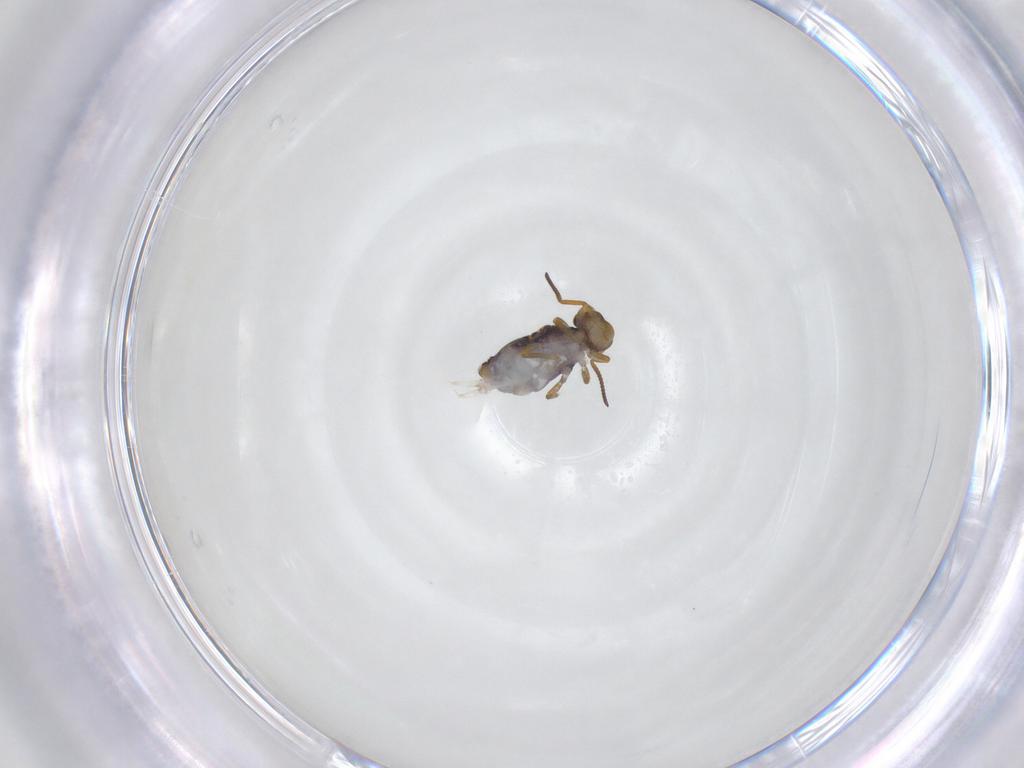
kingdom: Animalia
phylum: Arthropoda
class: Collembola
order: Symphypleona
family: Katiannidae
